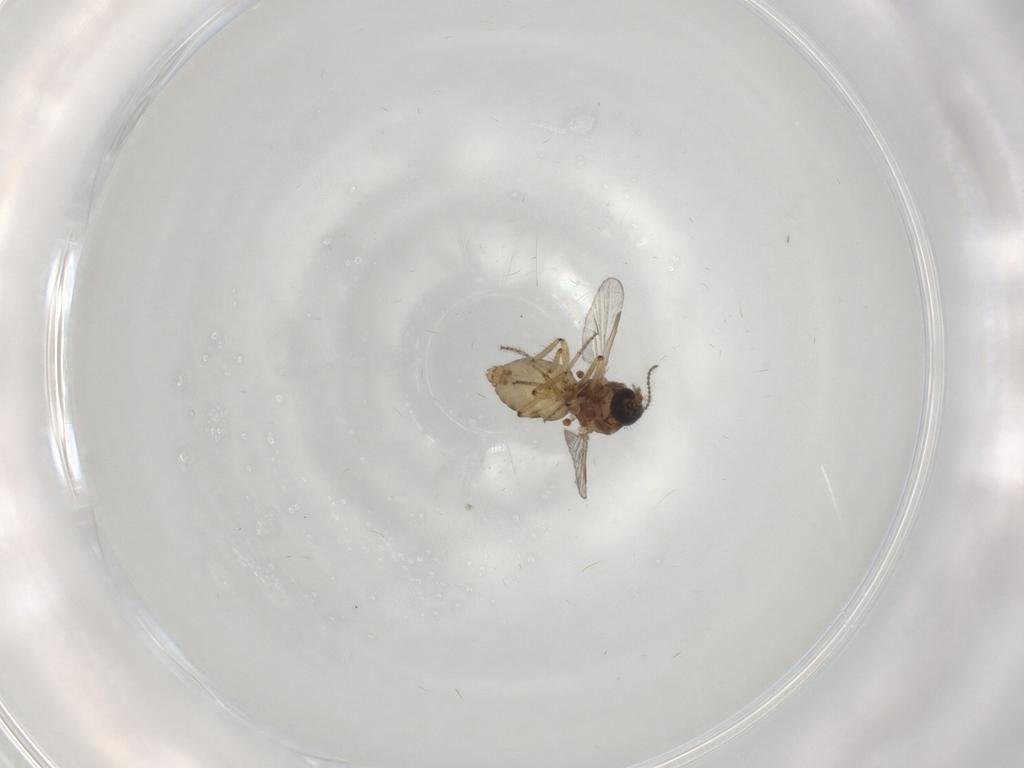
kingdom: Animalia
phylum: Arthropoda
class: Insecta
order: Diptera
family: Ceratopogonidae
